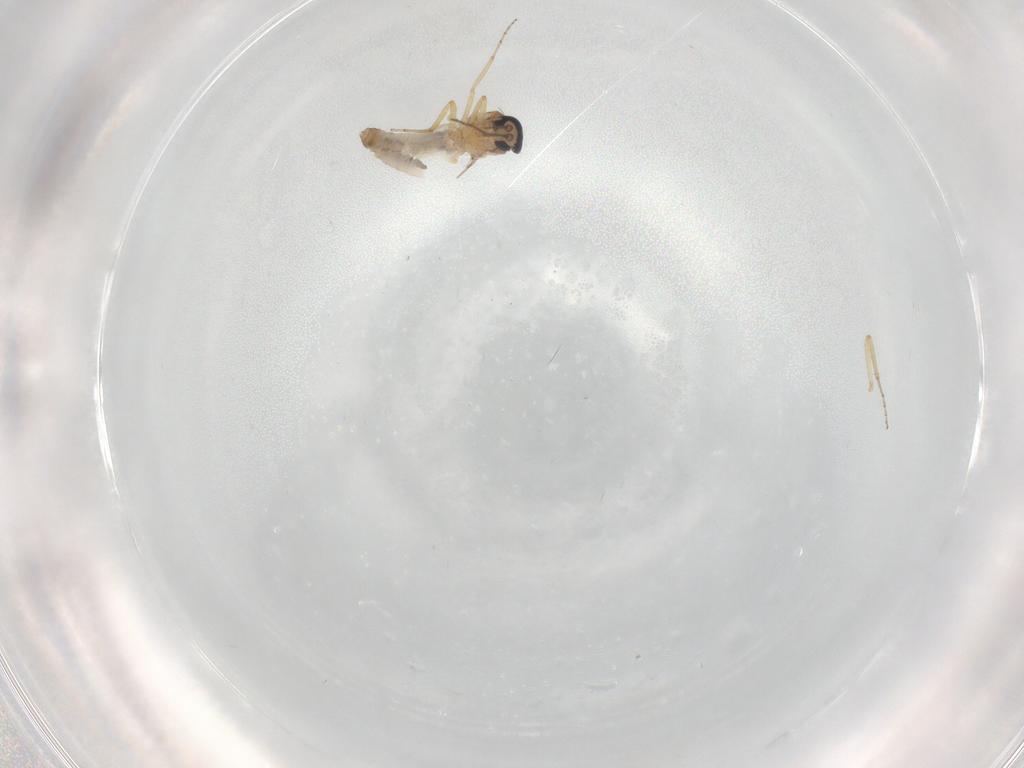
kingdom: Animalia
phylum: Arthropoda
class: Insecta
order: Diptera
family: Ceratopogonidae
